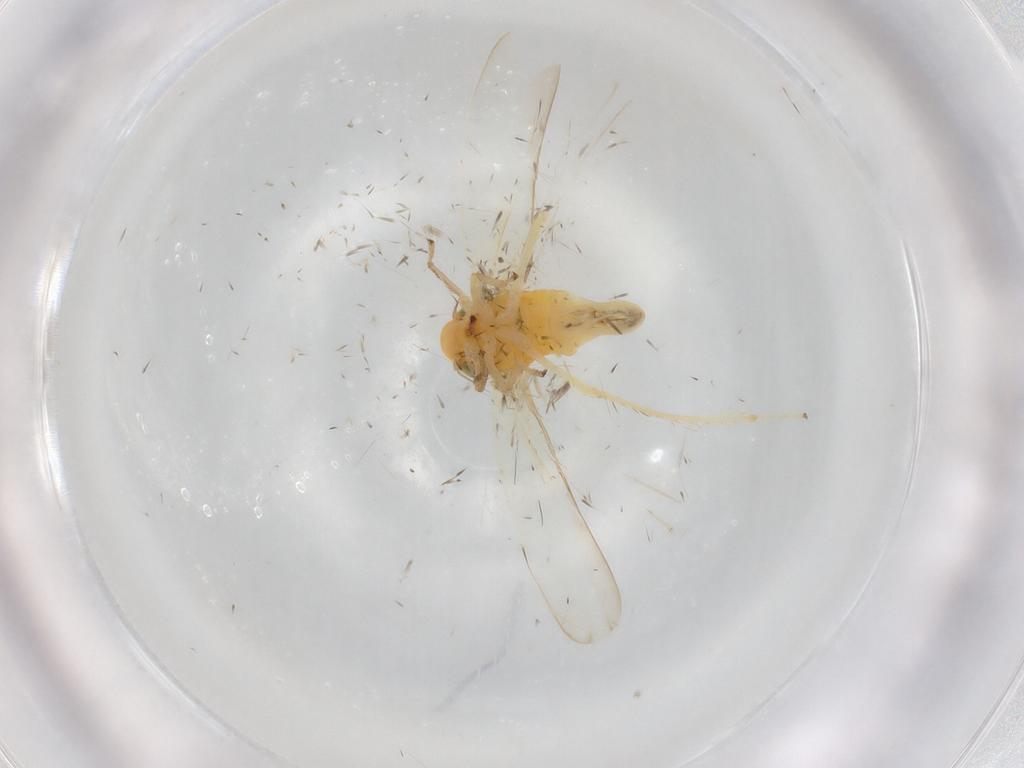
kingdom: Animalia
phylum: Arthropoda
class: Insecta
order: Hemiptera
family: Cicadellidae
